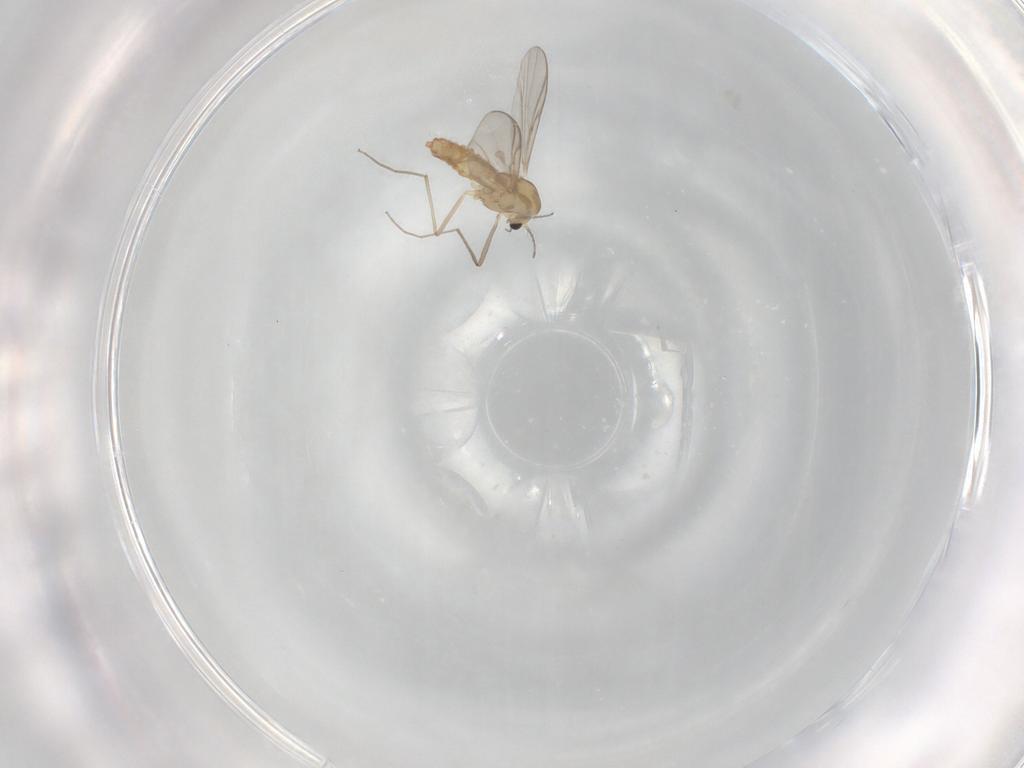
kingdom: Animalia
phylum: Arthropoda
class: Insecta
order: Diptera
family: Chironomidae
